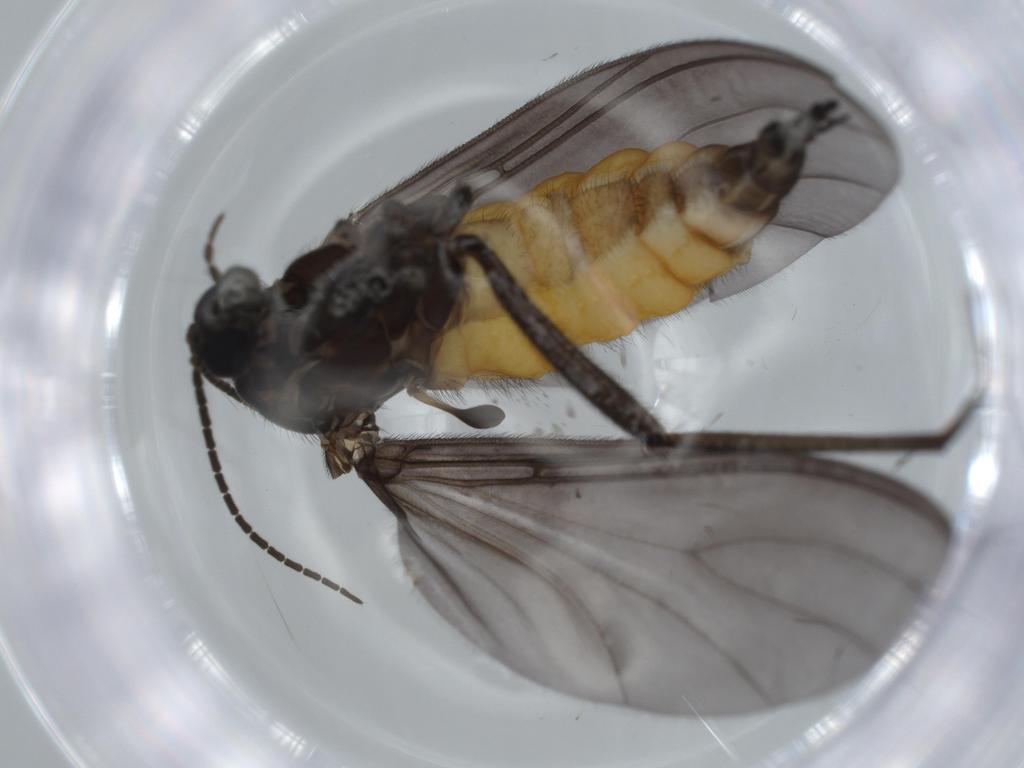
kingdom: Animalia
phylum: Arthropoda
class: Insecta
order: Diptera
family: Cecidomyiidae
